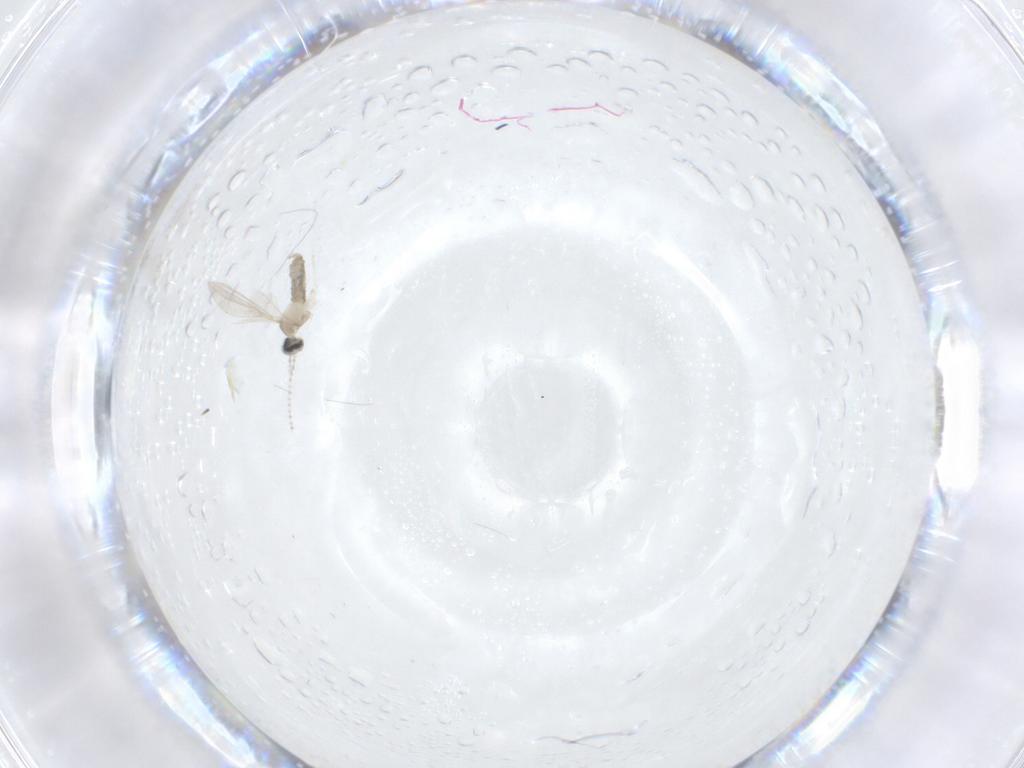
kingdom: Animalia
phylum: Arthropoda
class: Insecta
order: Diptera
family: Cecidomyiidae
